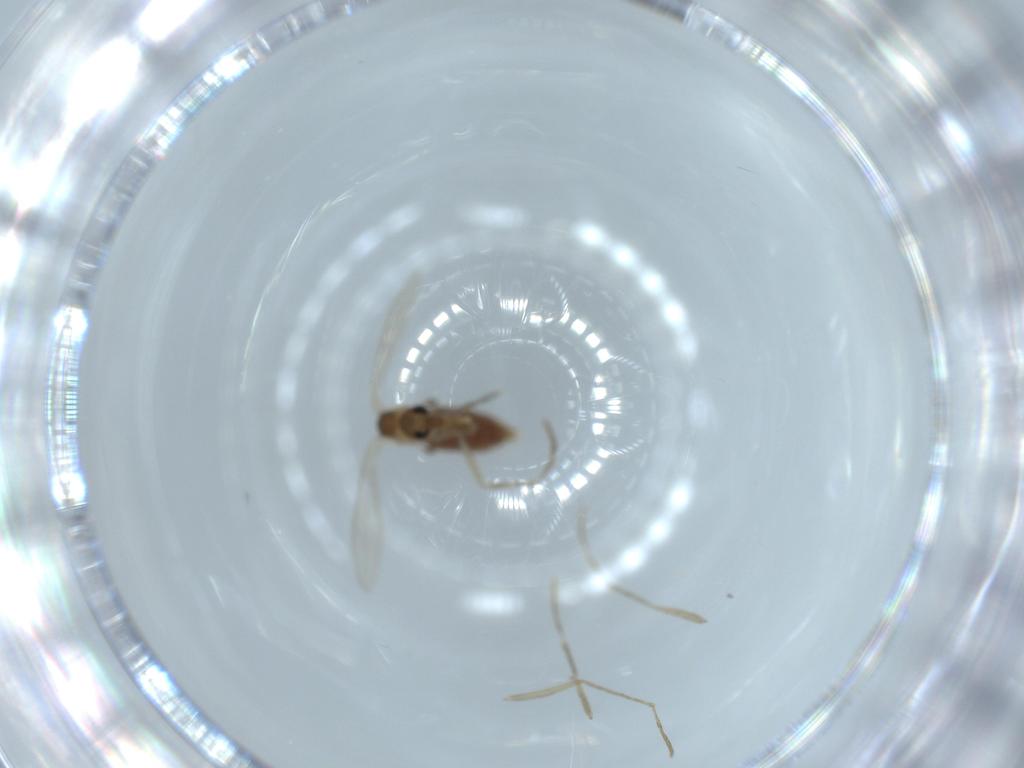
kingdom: Animalia
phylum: Arthropoda
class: Insecta
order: Diptera
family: Psychodidae
